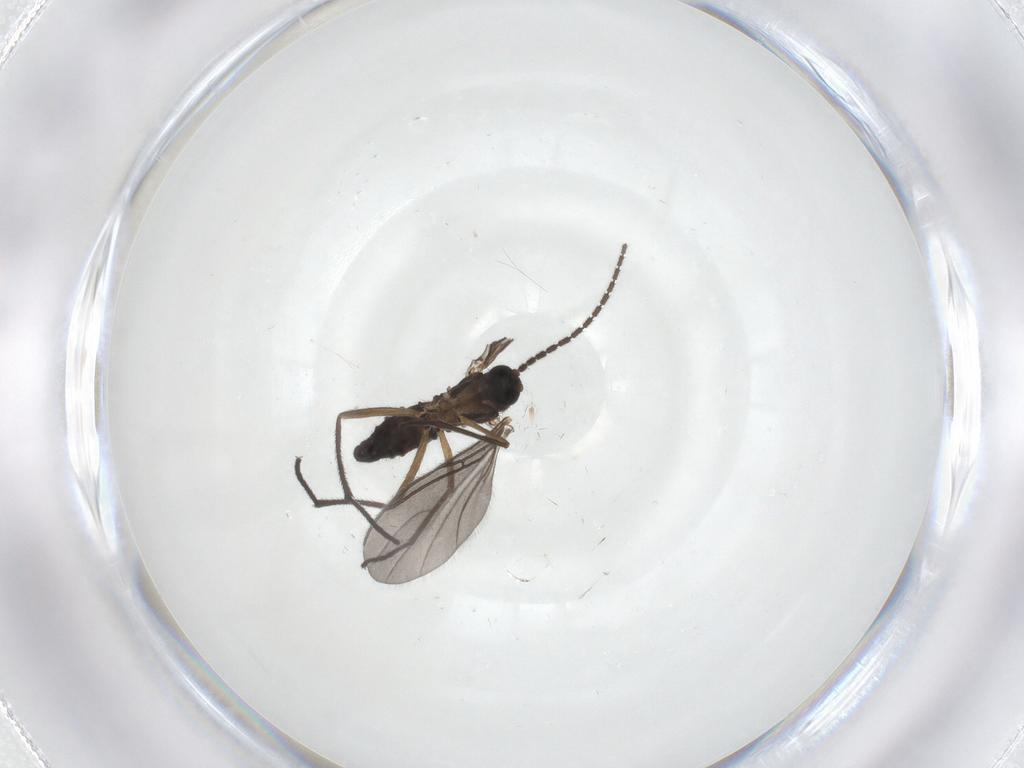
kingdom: Animalia
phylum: Arthropoda
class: Insecta
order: Diptera
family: Sciaridae
